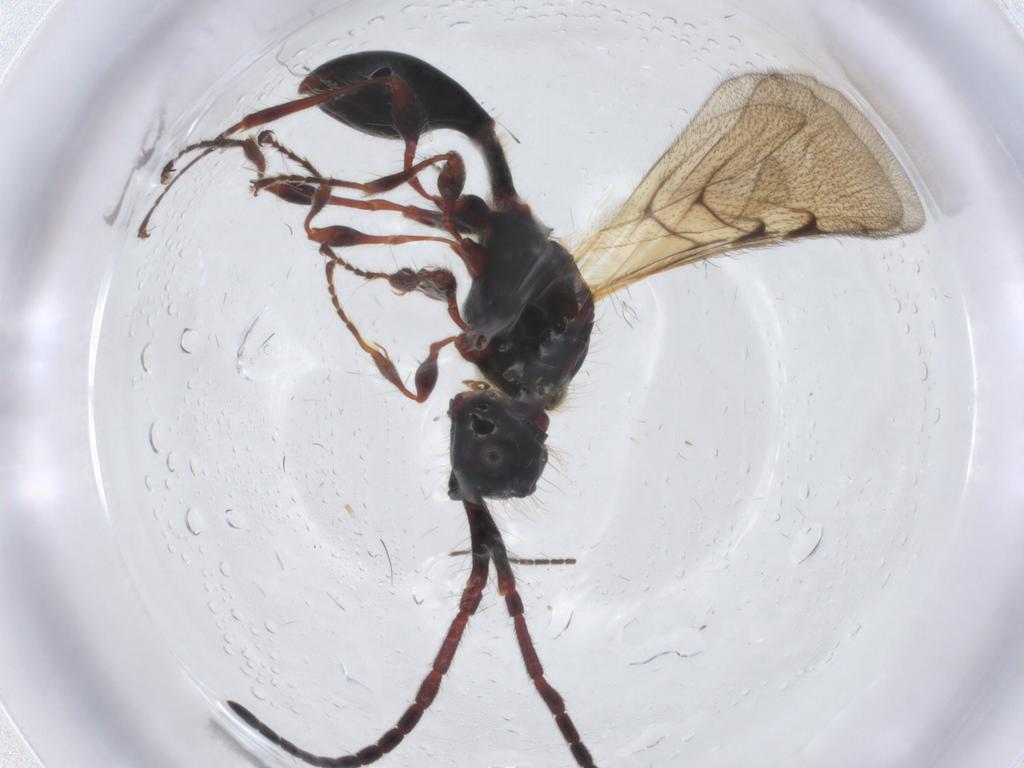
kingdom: Animalia
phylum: Arthropoda
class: Insecta
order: Hymenoptera
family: Diapriidae
